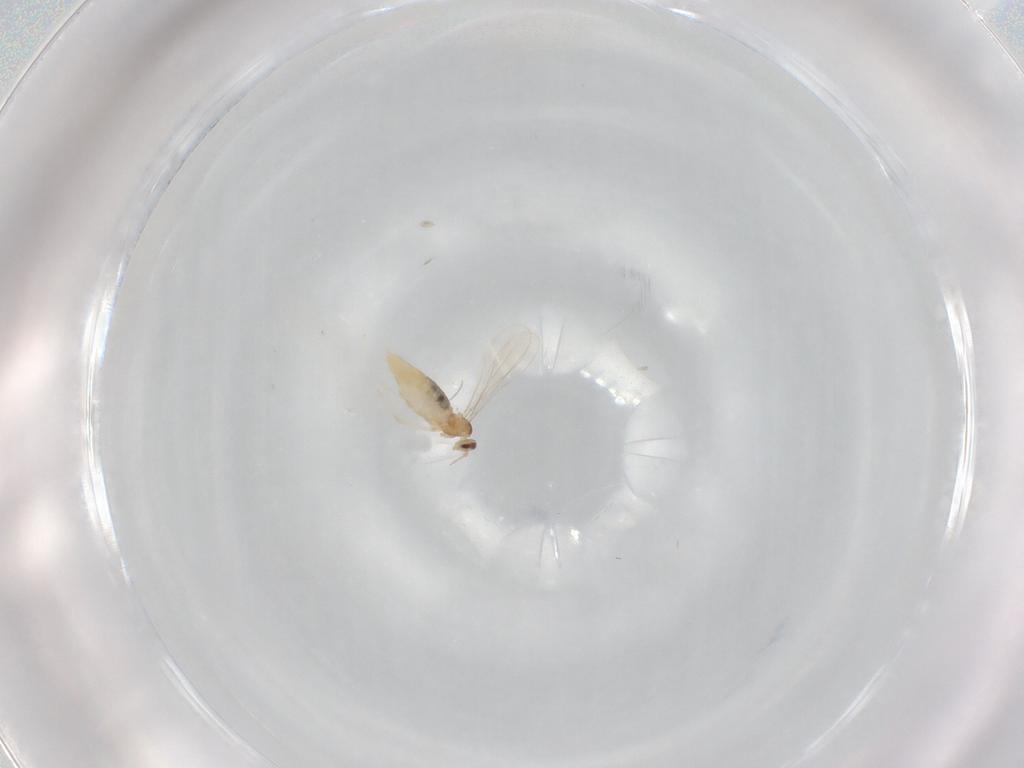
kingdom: Animalia
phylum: Arthropoda
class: Insecta
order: Diptera
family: Cecidomyiidae
